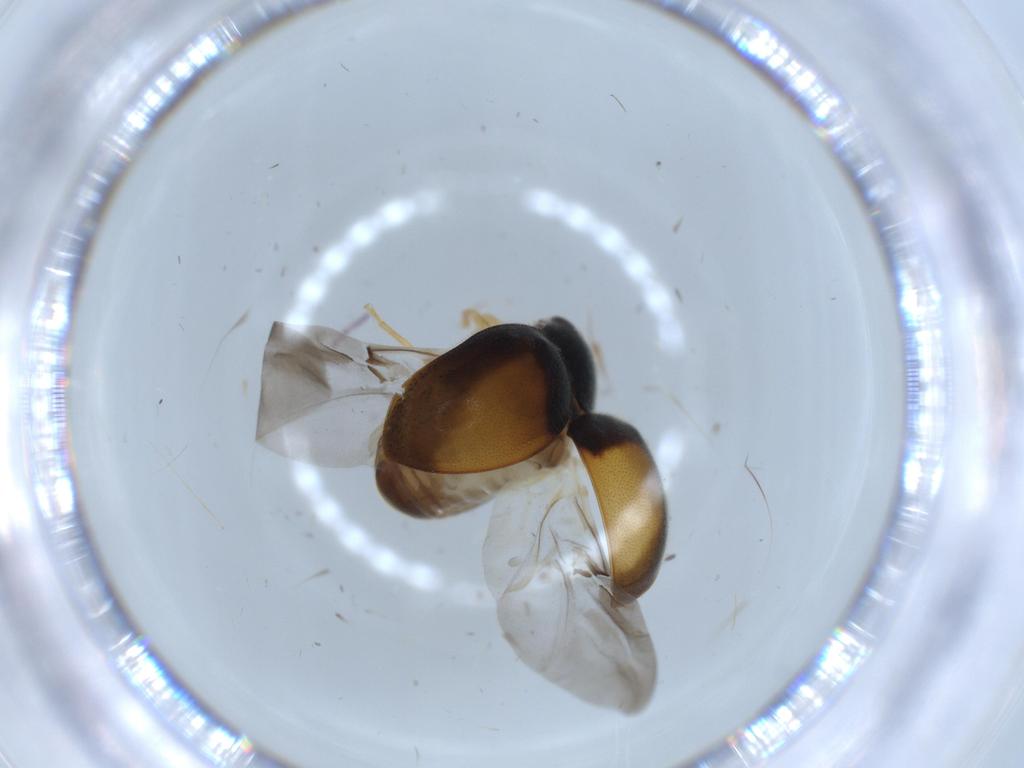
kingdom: Animalia
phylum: Arthropoda
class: Insecta
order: Coleoptera
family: Coccinellidae
